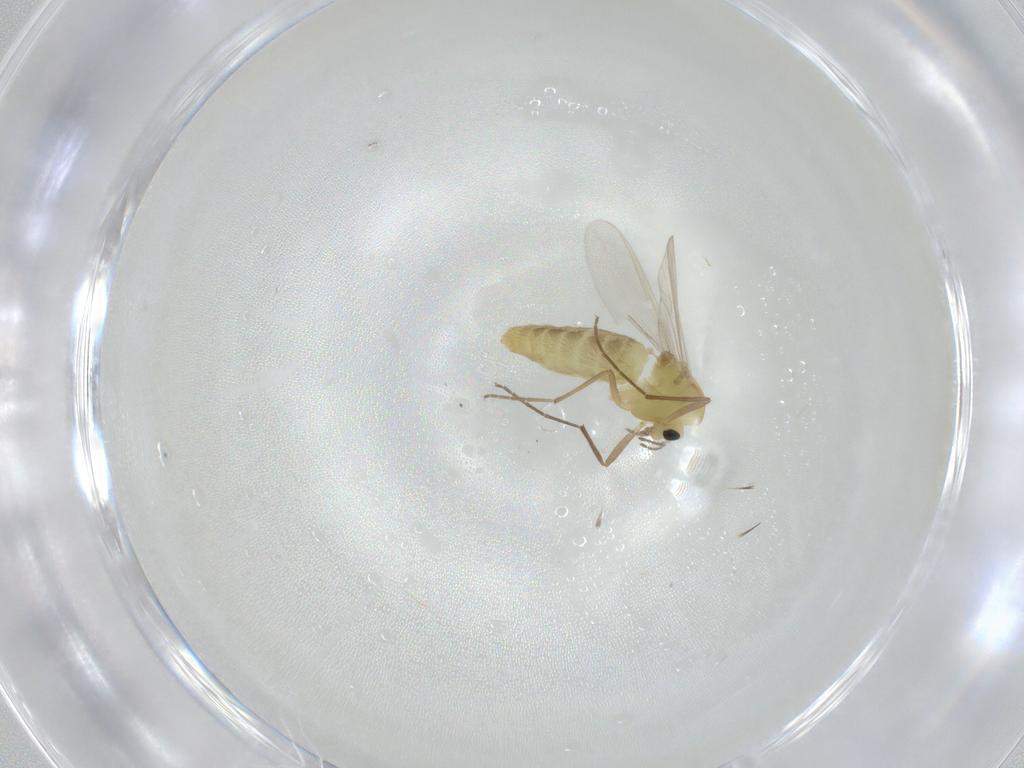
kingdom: Animalia
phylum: Arthropoda
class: Insecta
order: Diptera
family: Chironomidae
